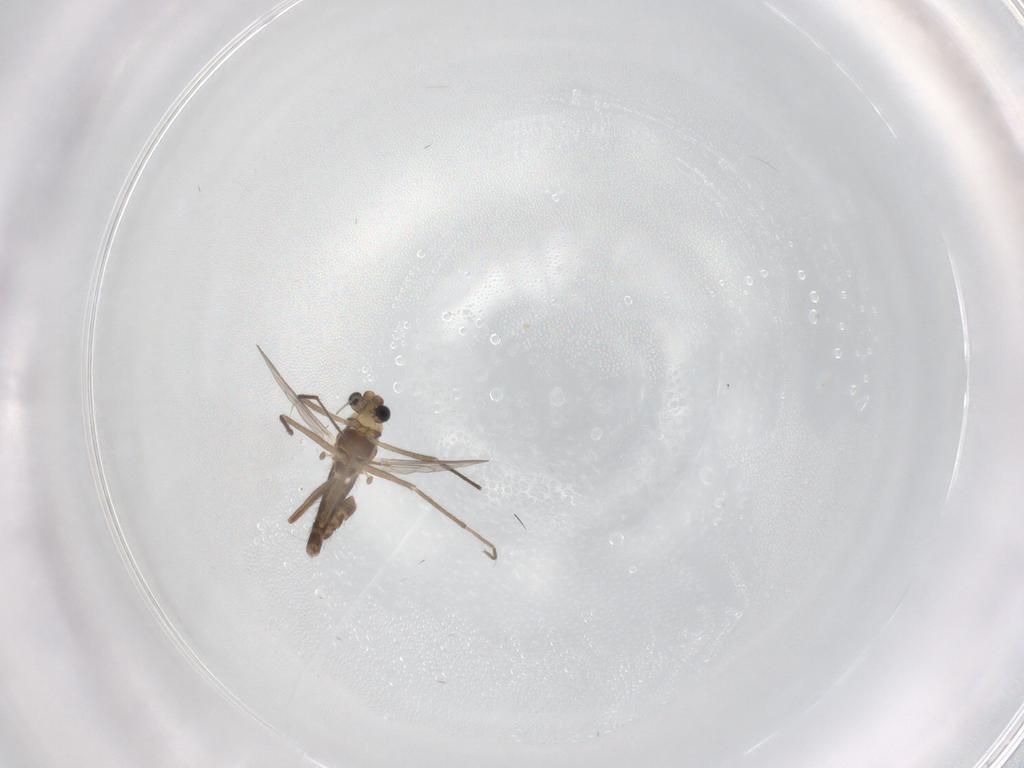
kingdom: Animalia
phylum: Arthropoda
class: Insecta
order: Diptera
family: Chironomidae
